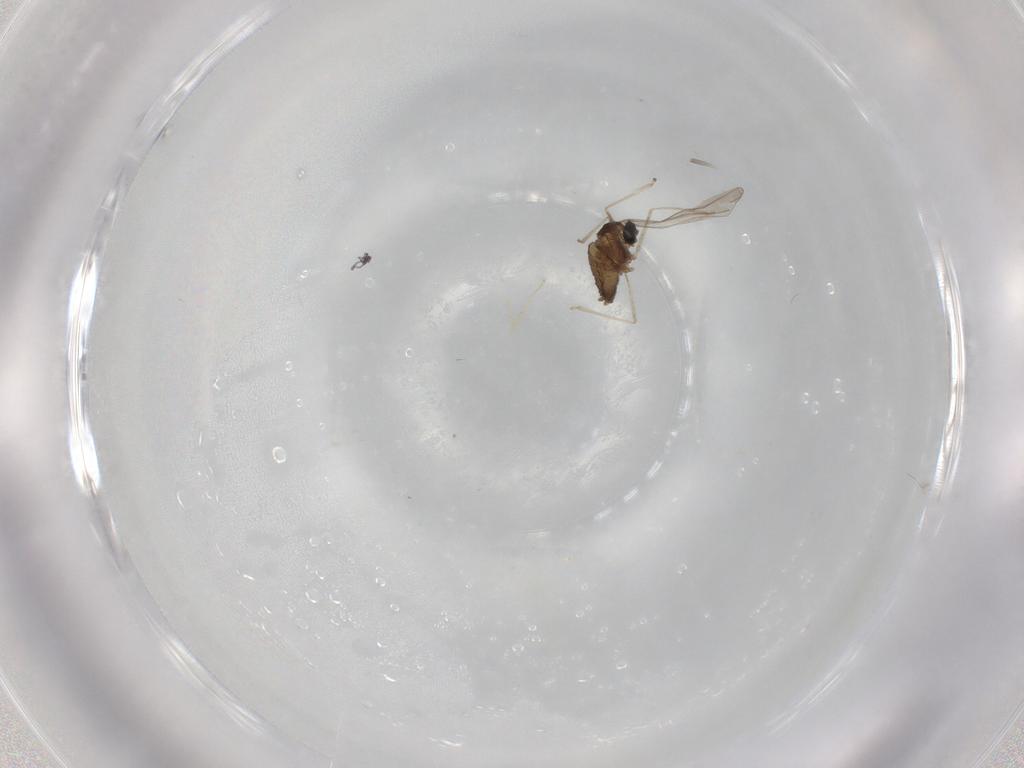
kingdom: Animalia
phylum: Arthropoda
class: Insecta
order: Diptera
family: Cecidomyiidae
